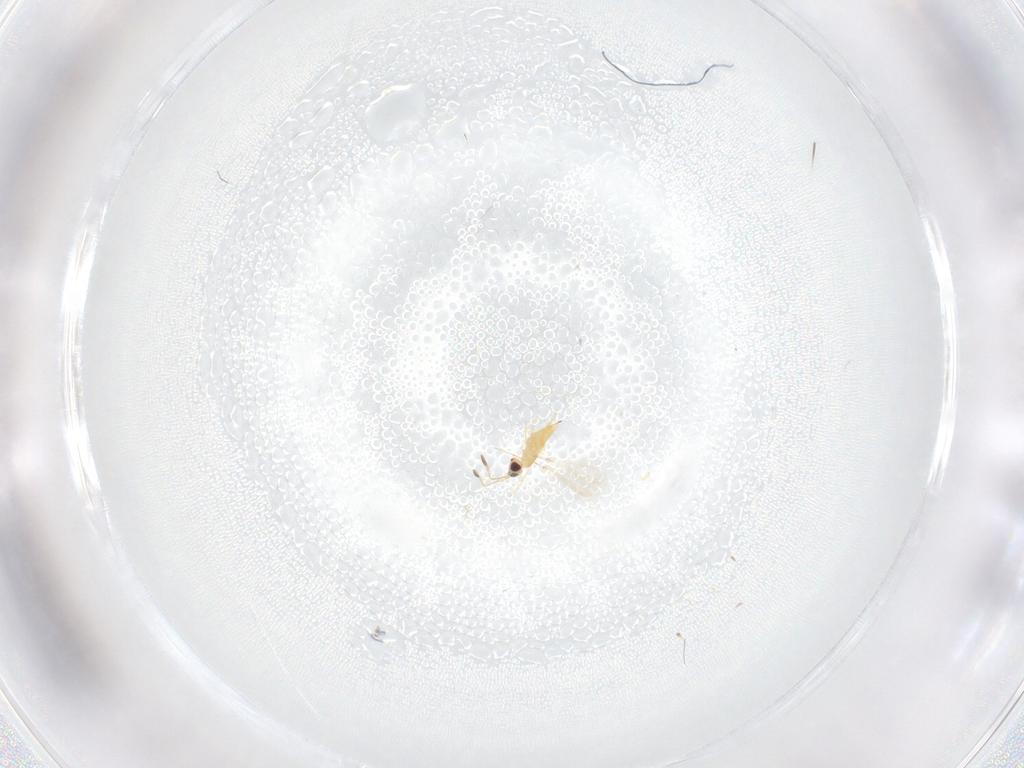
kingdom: Animalia
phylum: Arthropoda
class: Insecta
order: Hymenoptera
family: Mymaridae
